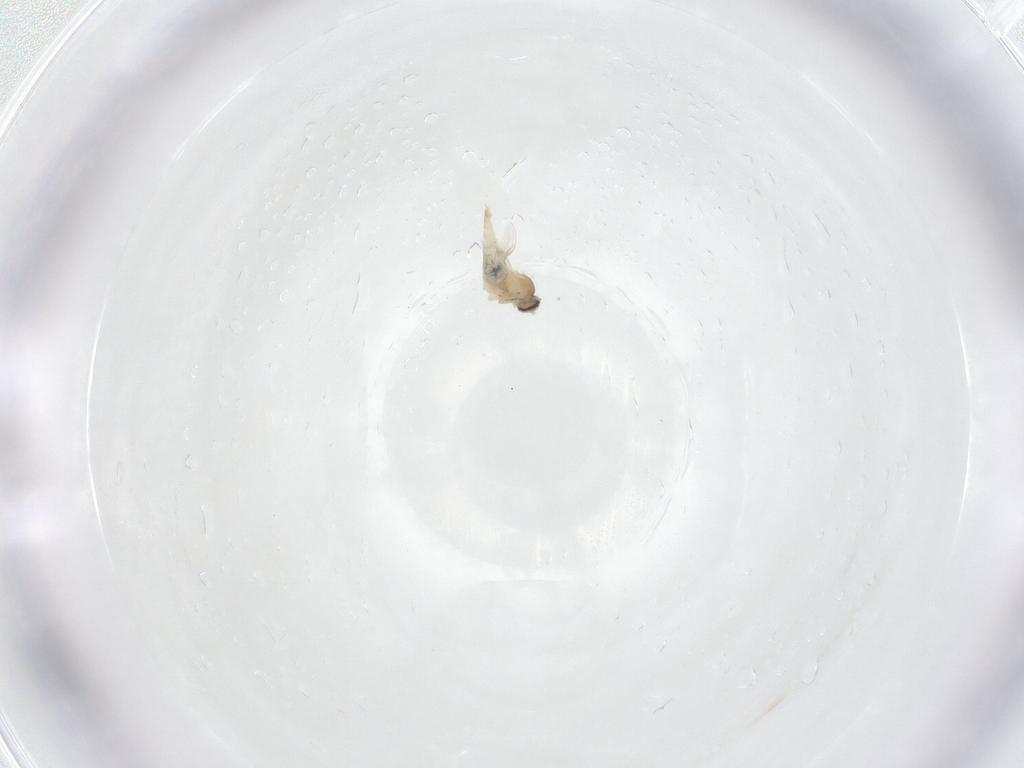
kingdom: Animalia
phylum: Arthropoda
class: Insecta
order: Diptera
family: Cecidomyiidae
